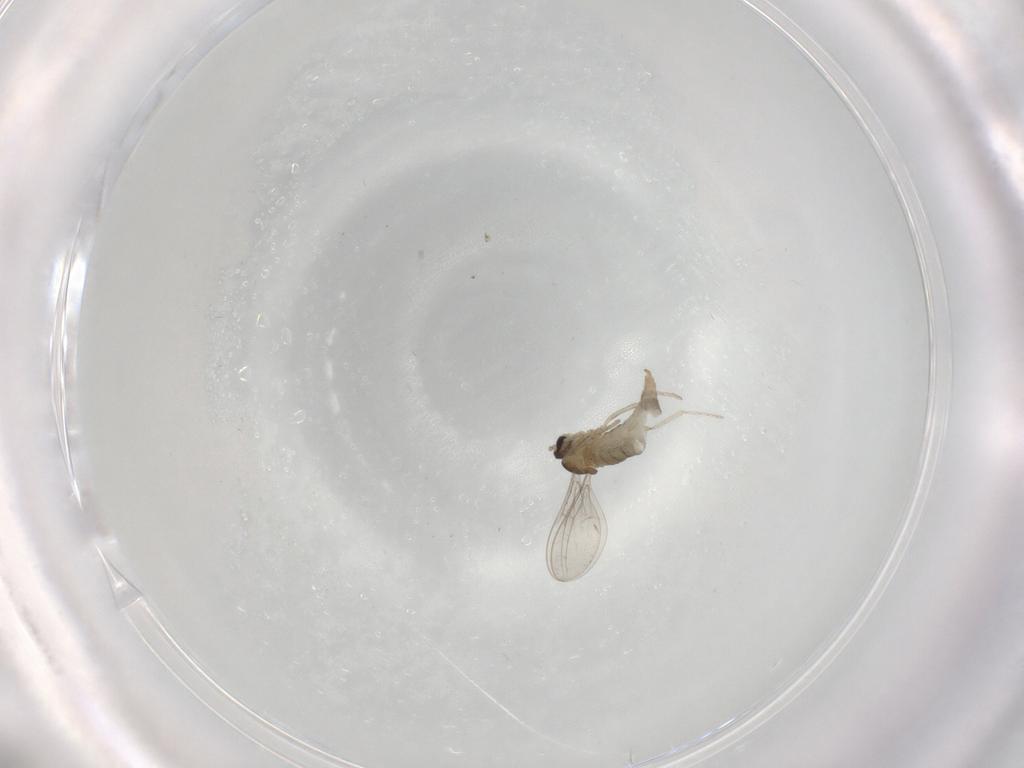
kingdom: Animalia
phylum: Arthropoda
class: Insecta
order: Diptera
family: Cecidomyiidae
